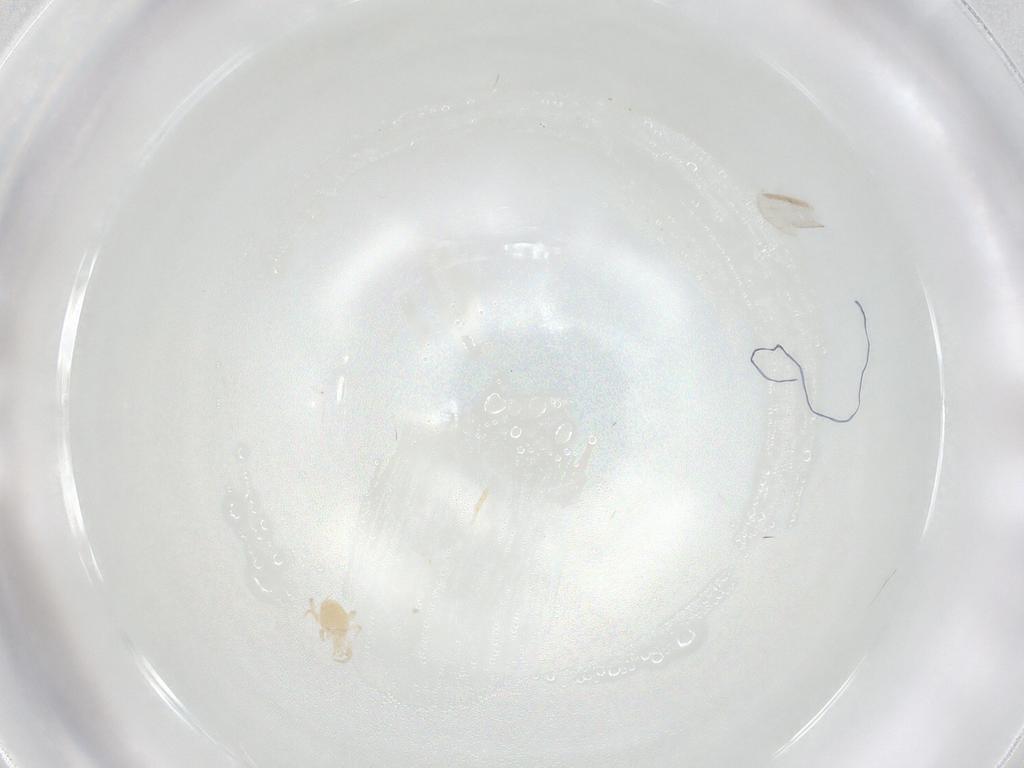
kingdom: Animalia
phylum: Arthropoda
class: Arachnida
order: Mesostigmata
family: Phytoseiidae
